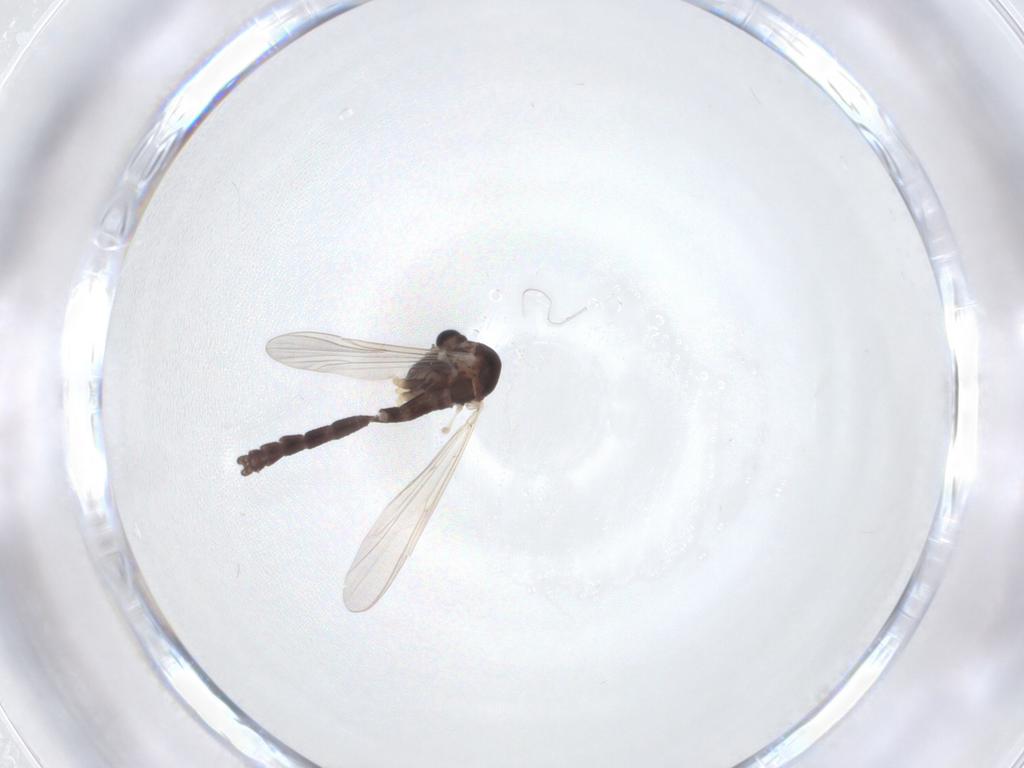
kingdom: Animalia
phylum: Arthropoda
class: Insecta
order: Diptera
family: Chironomidae
